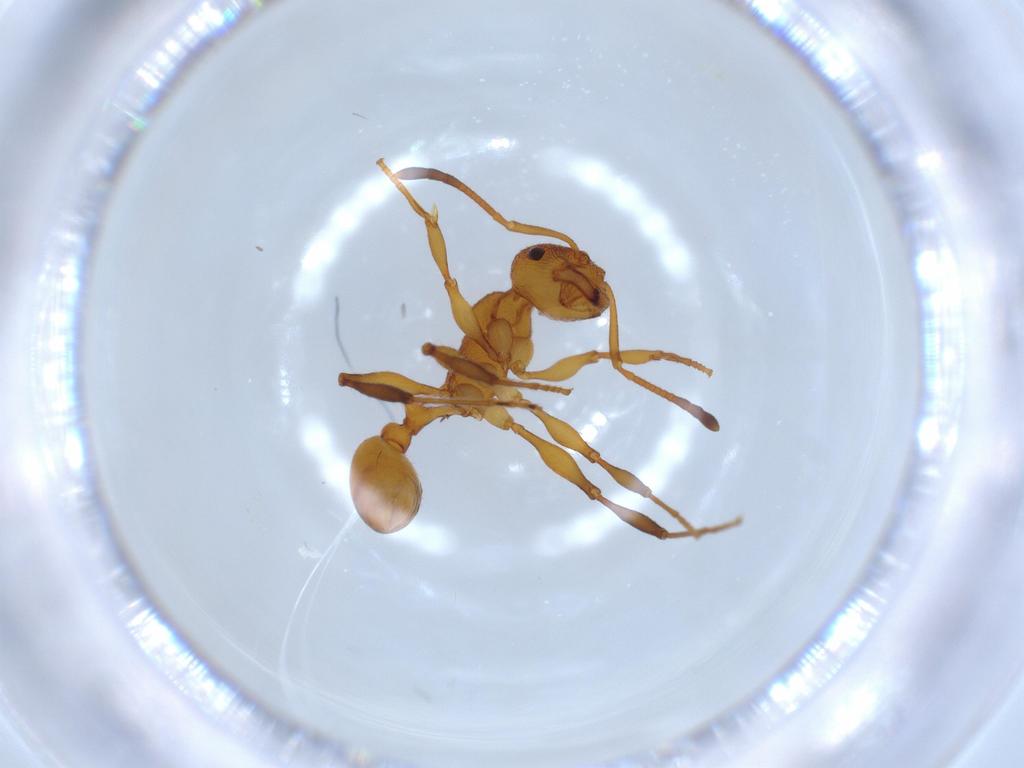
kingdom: Animalia
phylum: Arthropoda
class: Insecta
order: Hymenoptera
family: Formicidae
